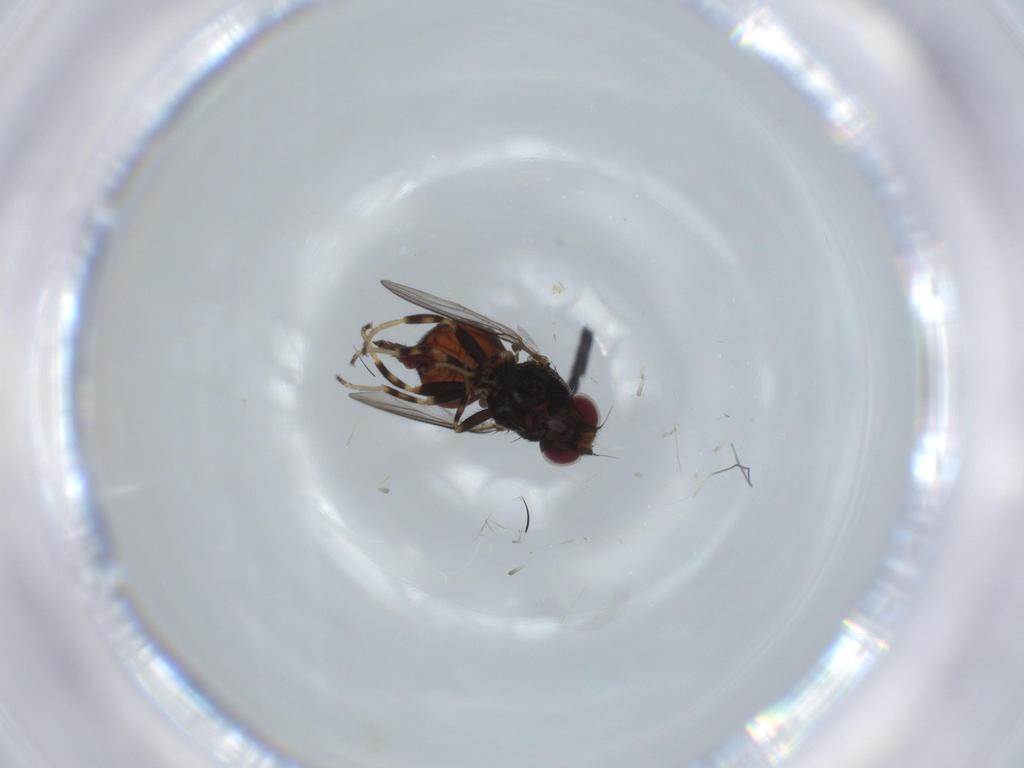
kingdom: Animalia
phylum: Arthropoda
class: Insecta
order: Diptera
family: Chloropidae
